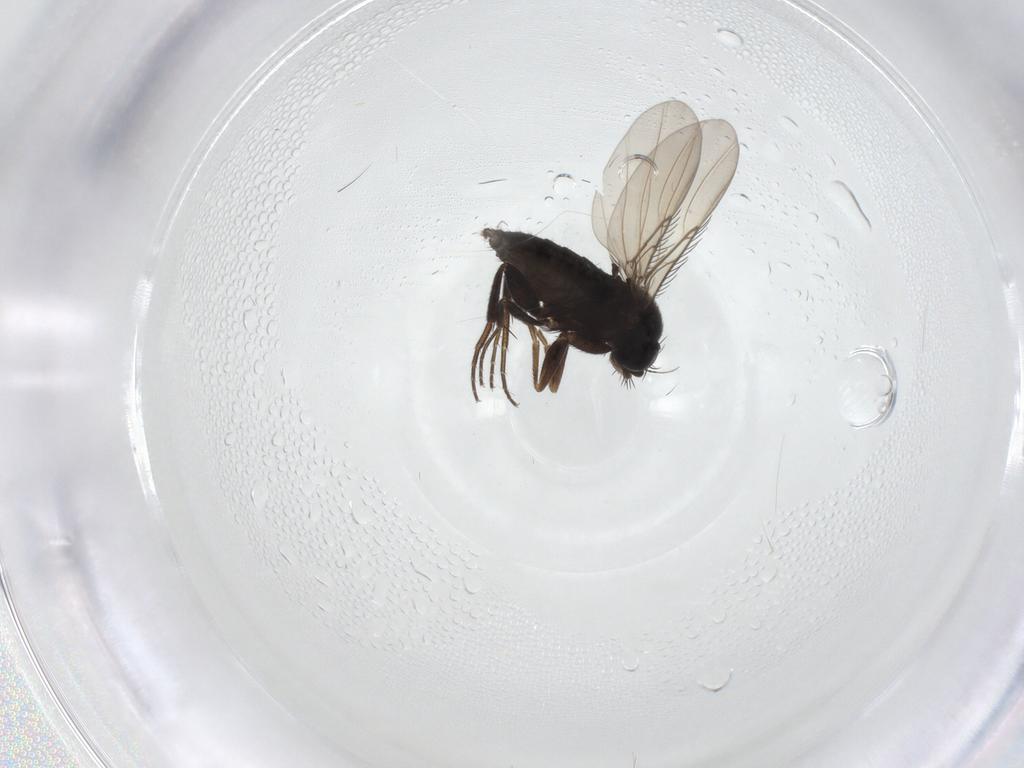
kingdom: Animalia
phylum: Arthropoda
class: Insecta
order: Diptera
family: Phoridae
